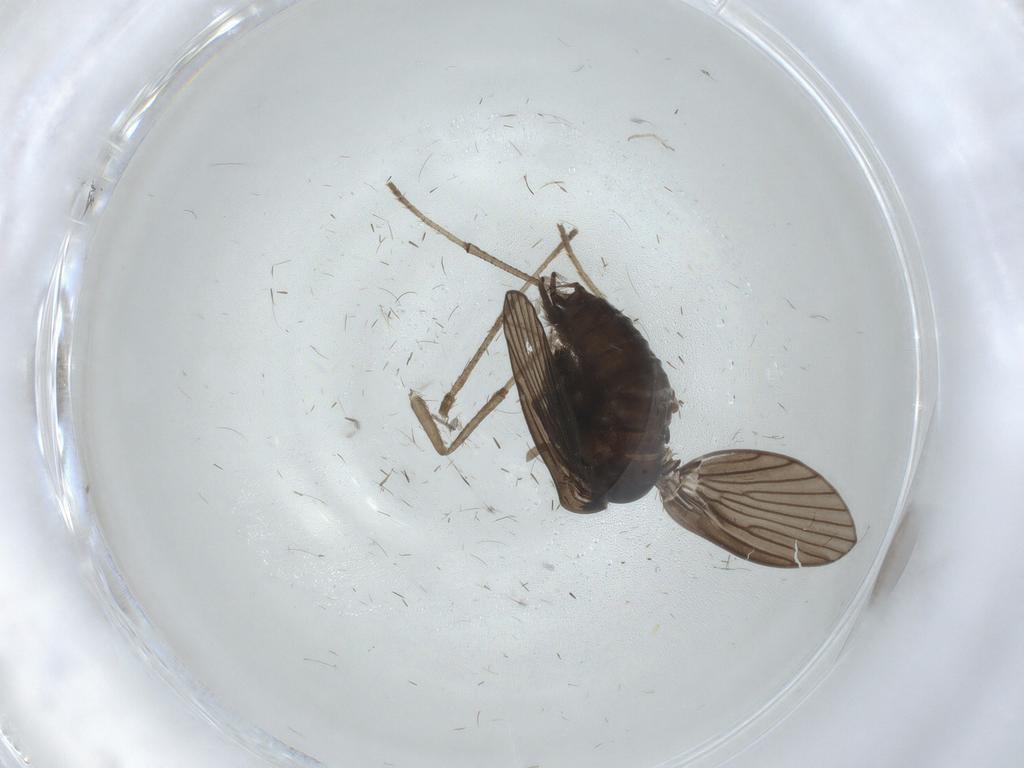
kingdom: Animalia
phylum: Arthropoda
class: Insecta
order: Diptera
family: Psychodidae
